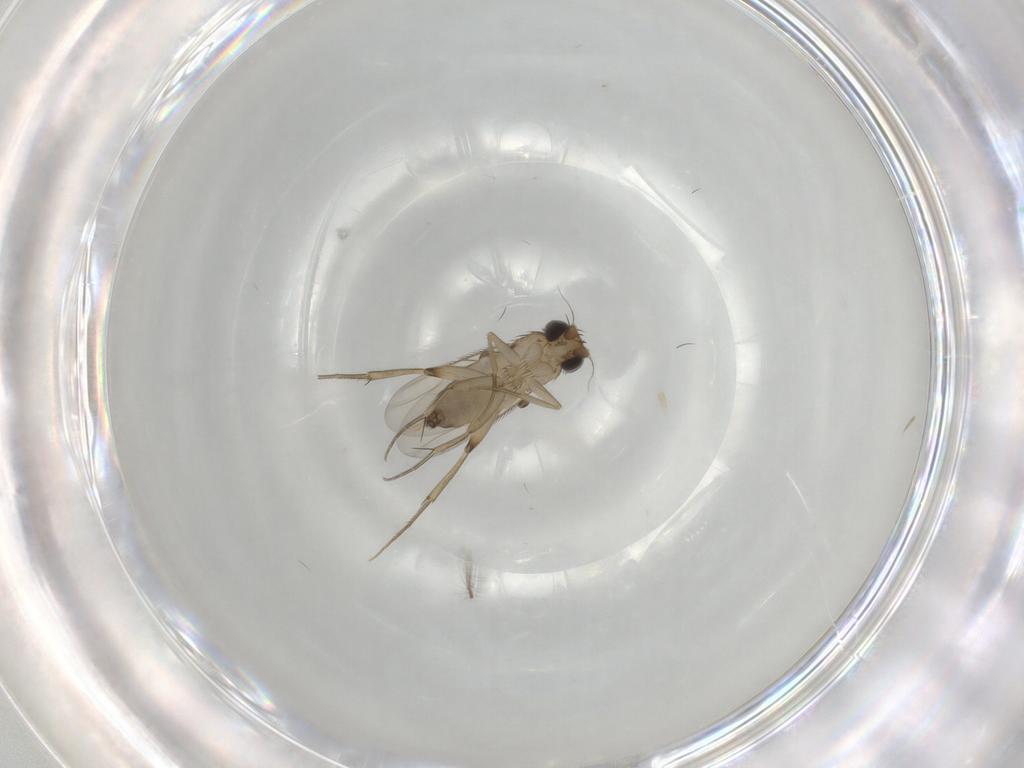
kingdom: Animalia
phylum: Arthropoda
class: Insecta
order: Diptera
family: Phoridae
